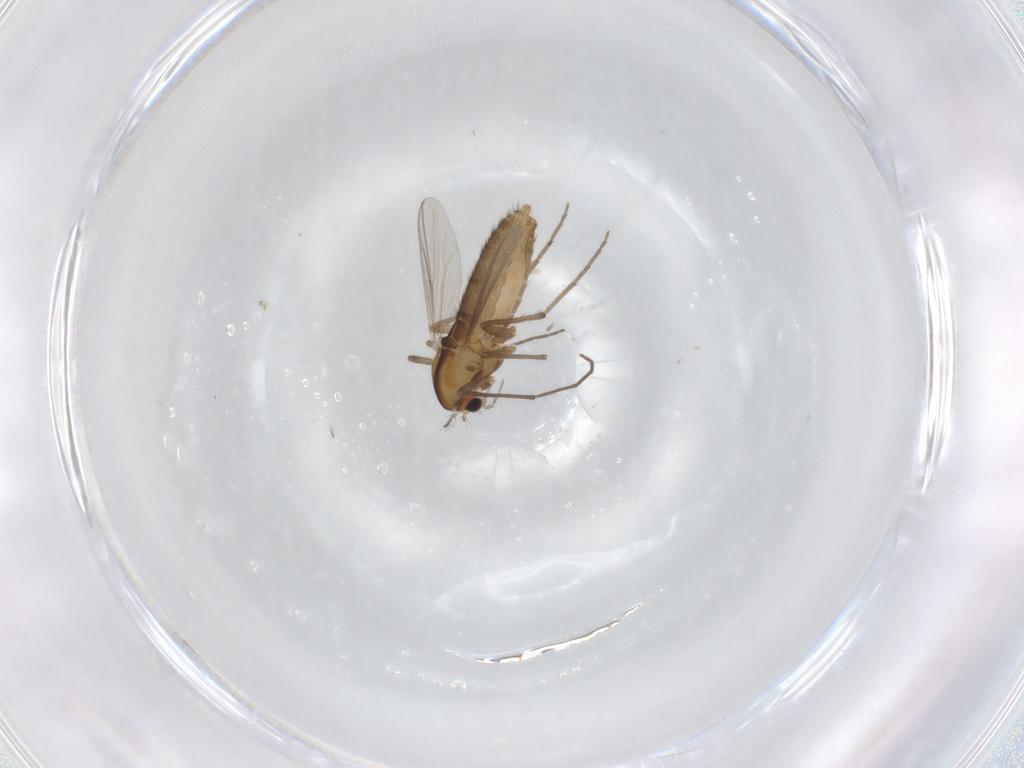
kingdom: Animalia
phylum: Arthropoda
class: Insecta
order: Diptera
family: Chironomidae
